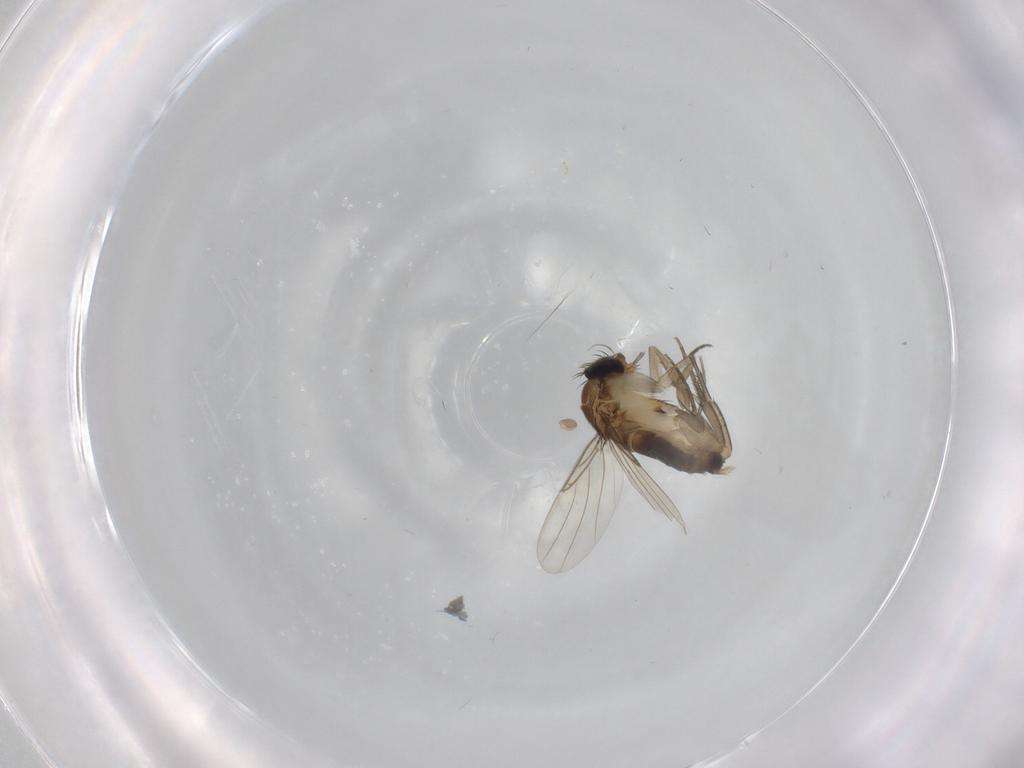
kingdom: Animalia
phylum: Arthropoda
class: Insecta
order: Diptera
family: Phoridae
